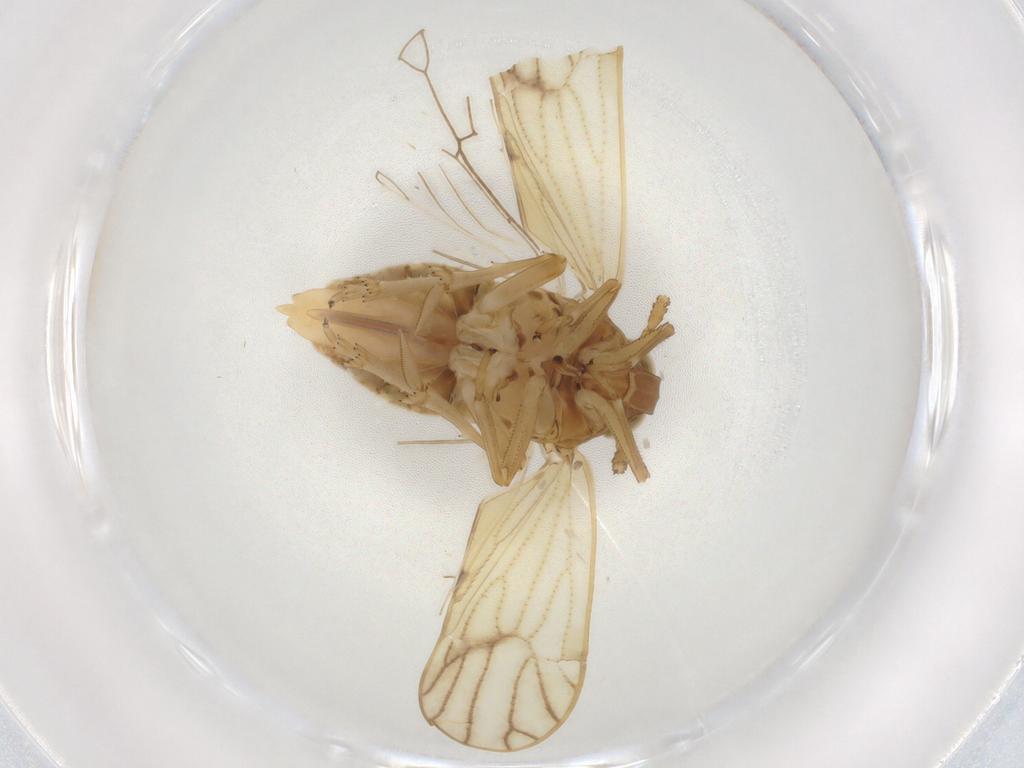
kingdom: Animalia
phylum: Arthropoda
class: Insecta
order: Hemiptera
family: Delphacidae
